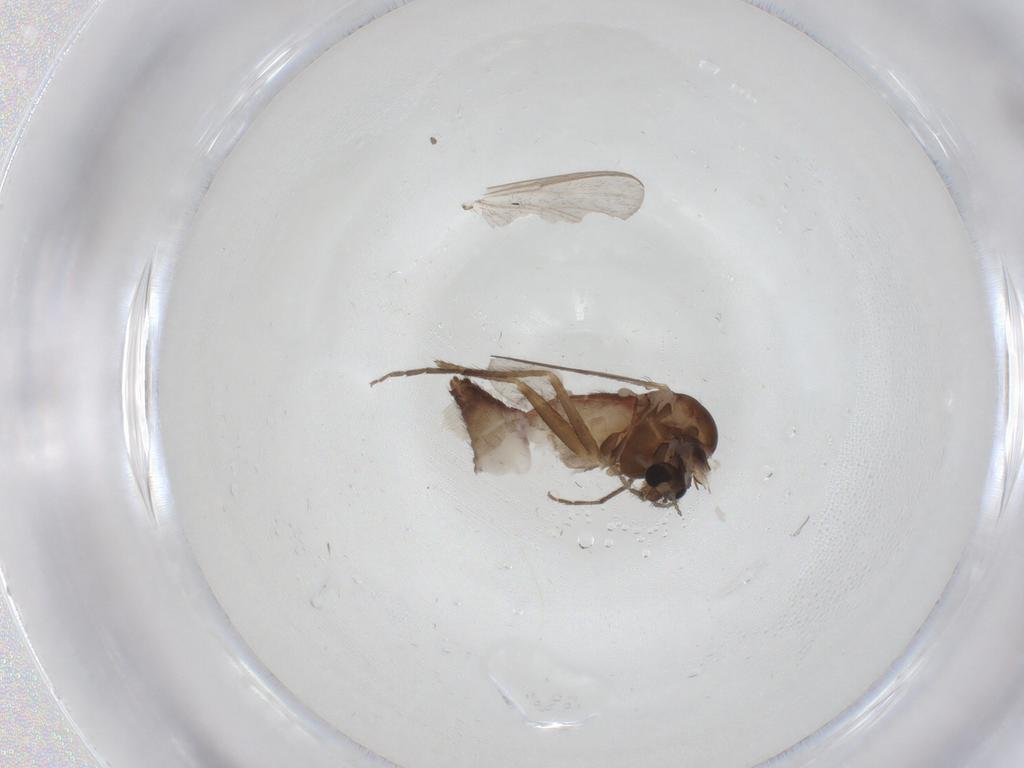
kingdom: Animalia
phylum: Arthropoda
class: Insecta
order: Diptera
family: Chironomidae
